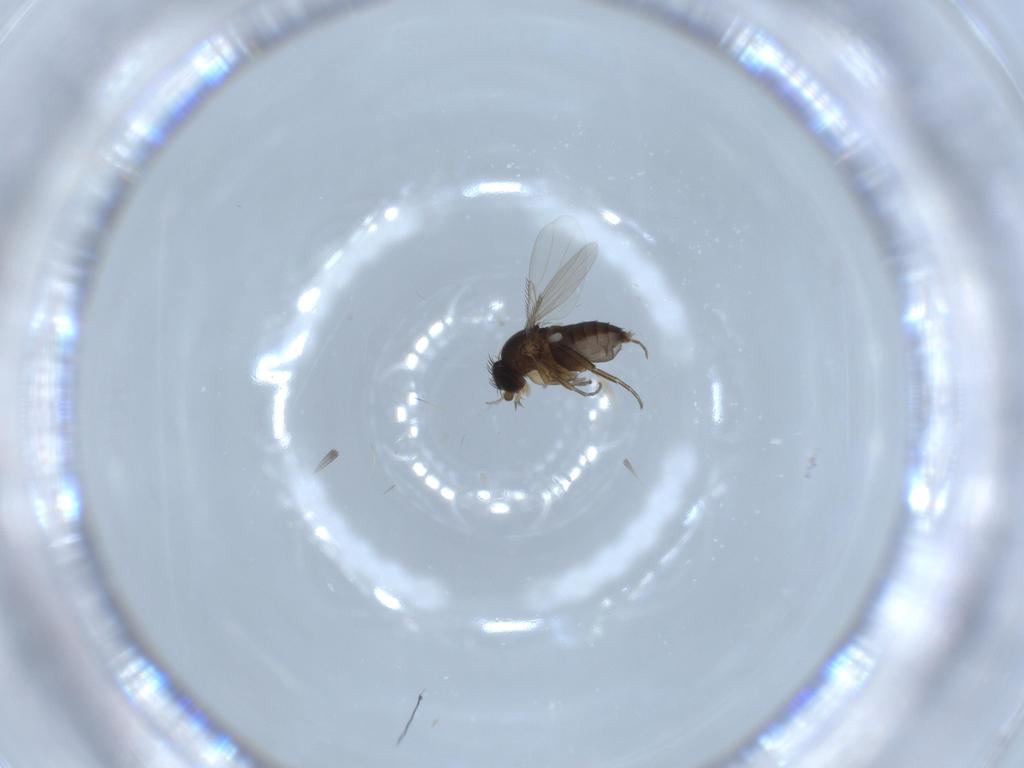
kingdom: Animalia
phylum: Arthropoda
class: Insecta
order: Diptera
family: Phoridae
